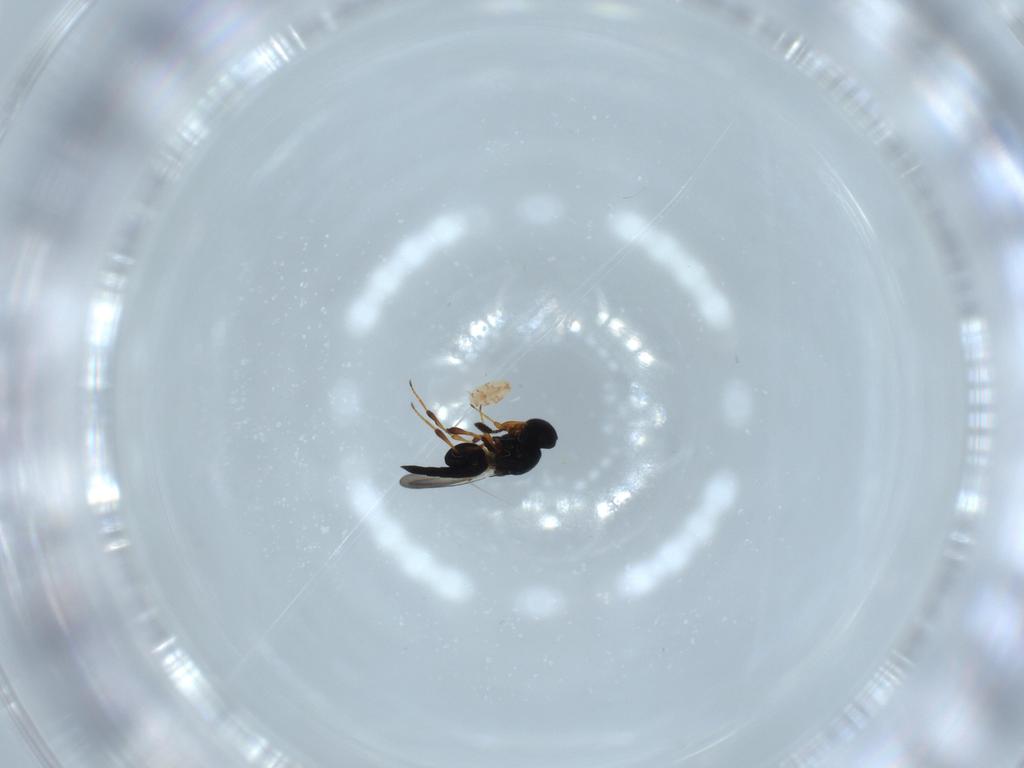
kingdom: Animalia
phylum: Arthropoda
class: Insecta
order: Hymenoptera
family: Platygastridae
